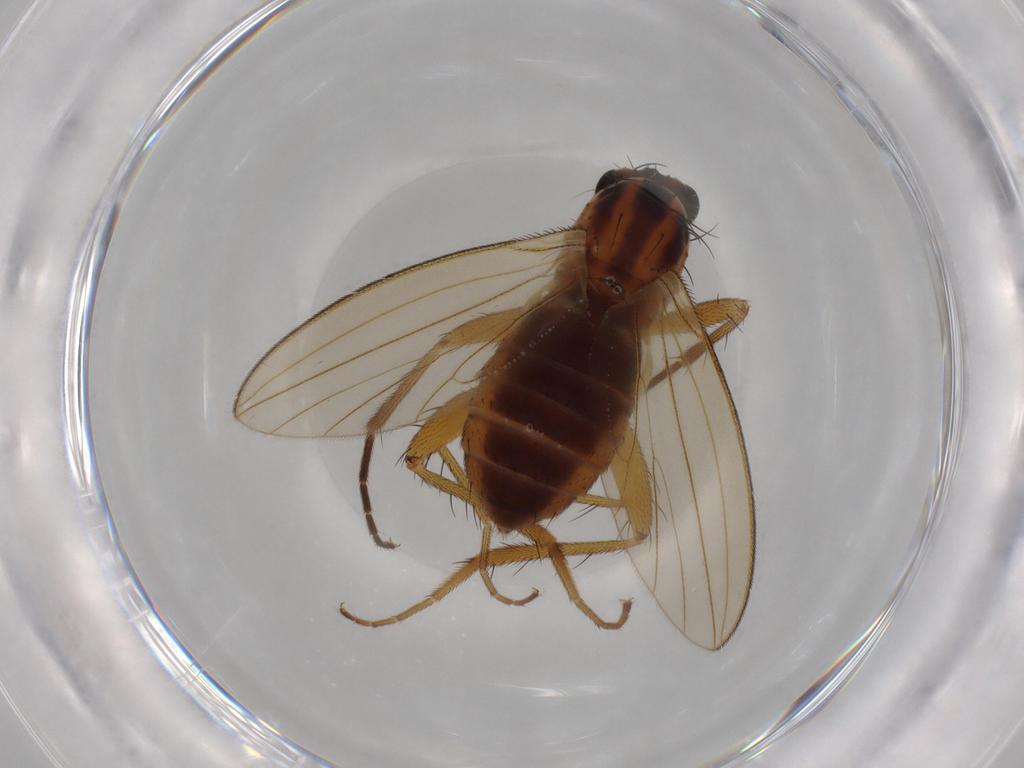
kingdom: Animalia
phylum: Arthropoda
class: Insecta
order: Diptera
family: Lonchopteridae
